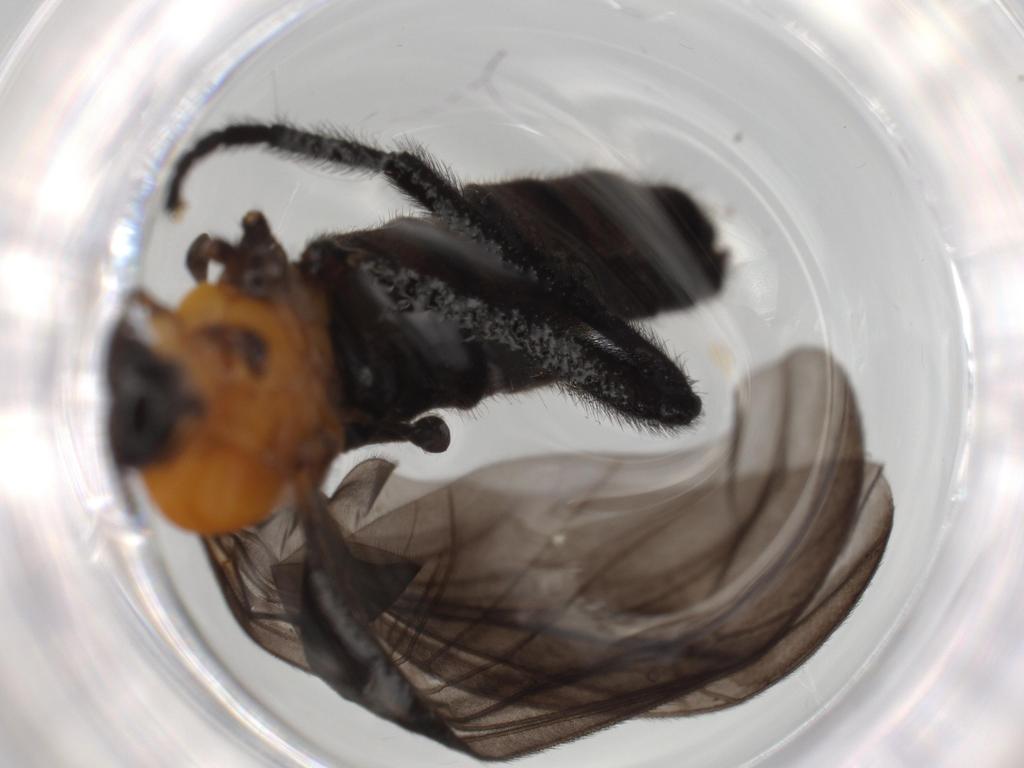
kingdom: Animalia
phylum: Arthropoda
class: Insecta
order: Diptera
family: Bibionidae
